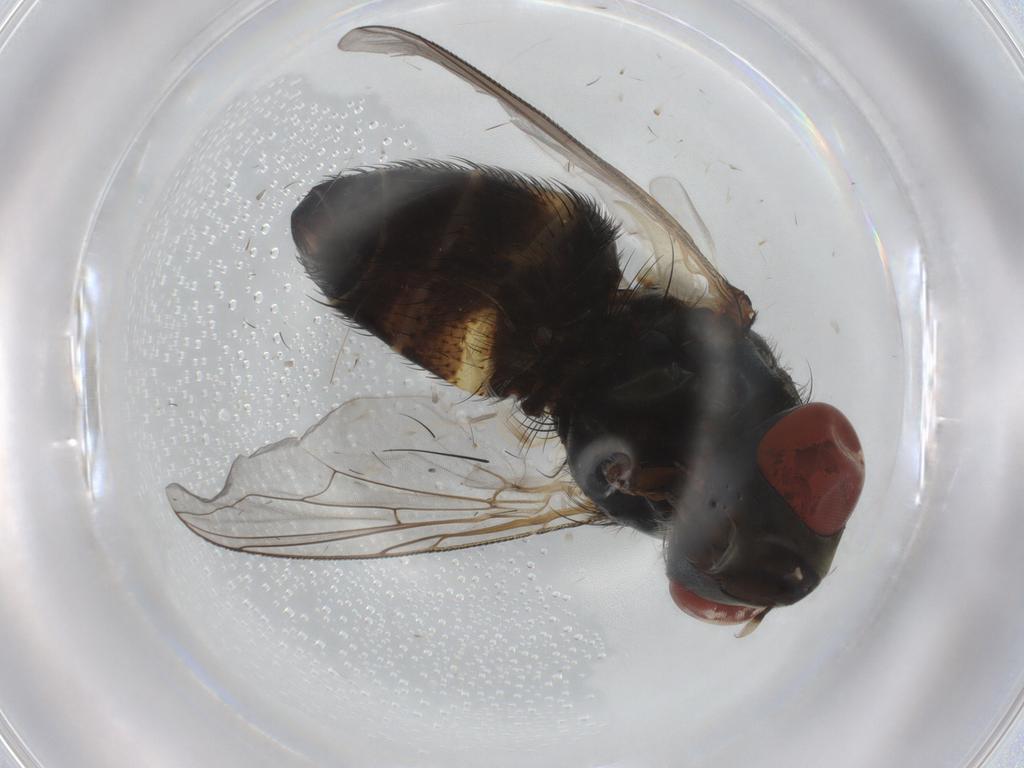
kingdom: Animalia
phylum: Arthropoda
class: Insecta
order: Diptera
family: Sarcophagidae
